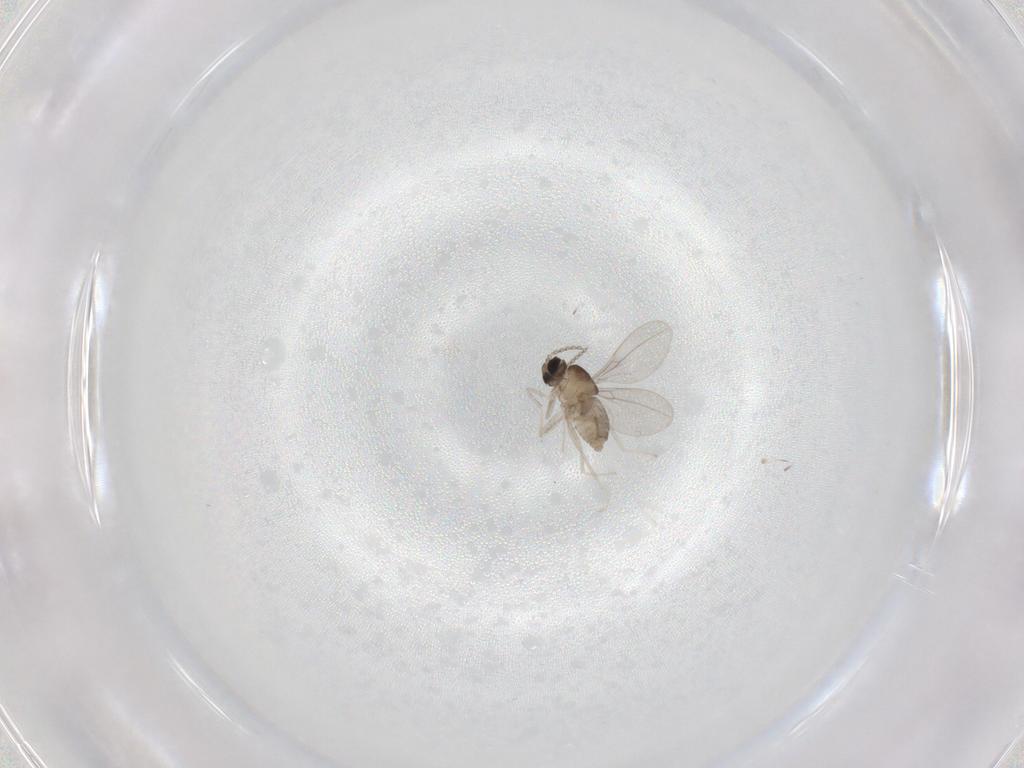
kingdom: Animalia
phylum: Arthropoda
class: Insecta
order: Diptera
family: Cecidomyiidae
